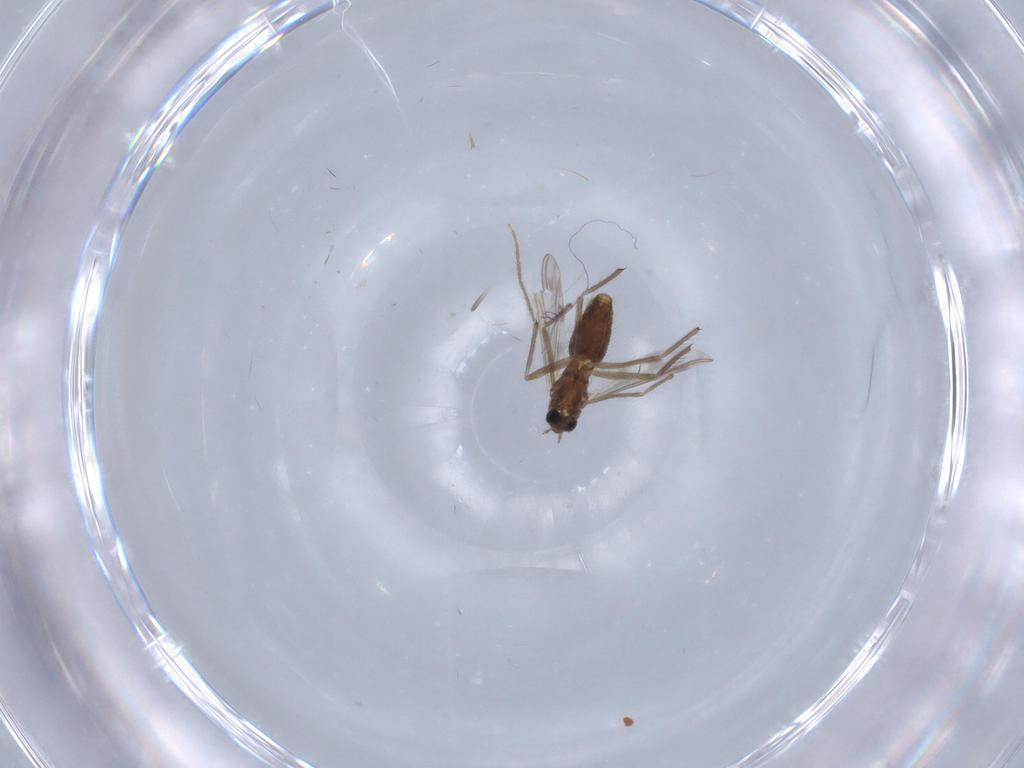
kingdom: Animalia
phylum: Arthropoda
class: Insecta
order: Diptera
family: Chironomidae
